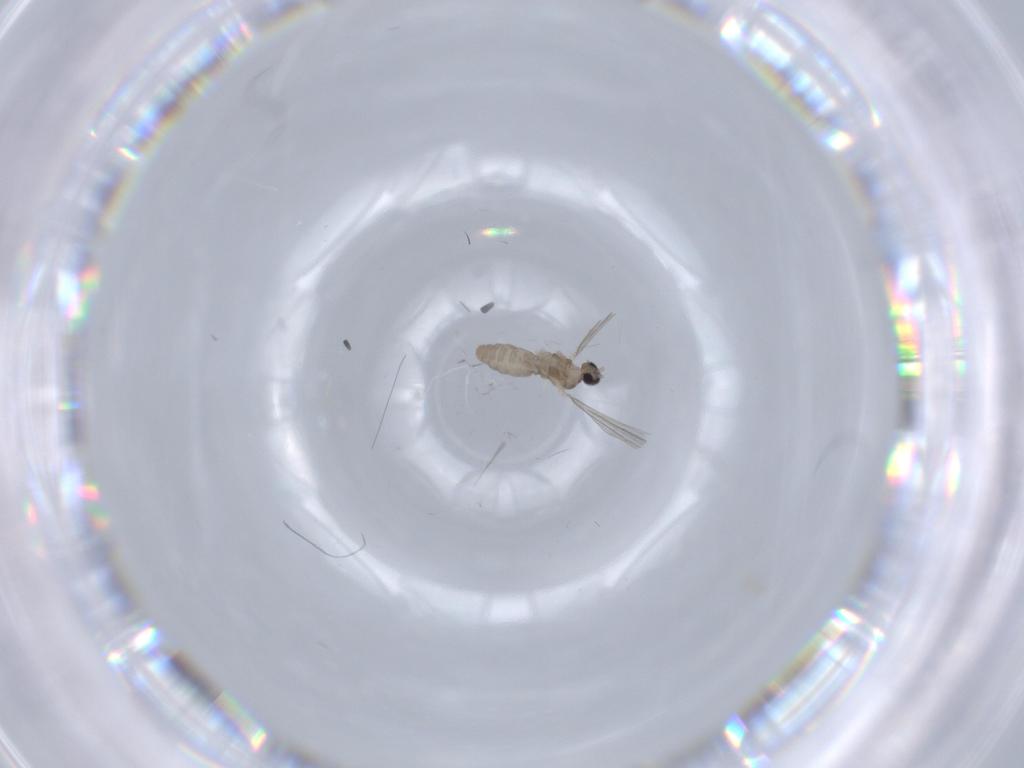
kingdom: Animalia
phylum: Arthropoda
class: Insecta
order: Diptera
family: Cecidomyiidae
